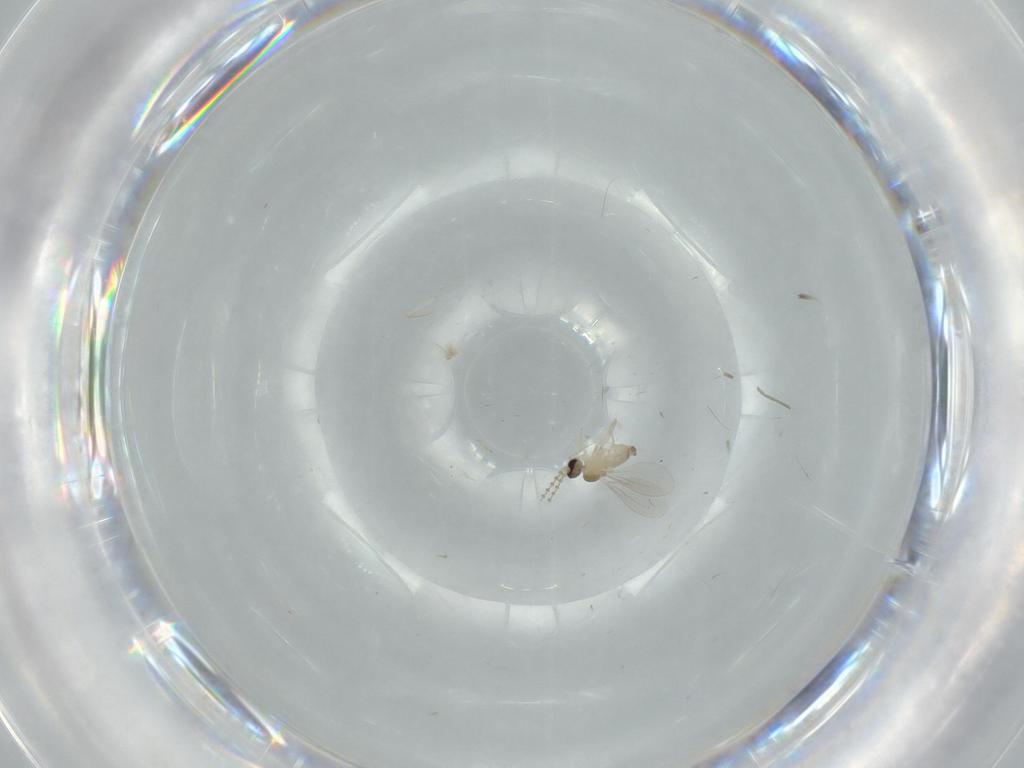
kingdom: Animalia
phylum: Arthropoda
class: Insecta
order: Diptera
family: Cecidomyiidae
